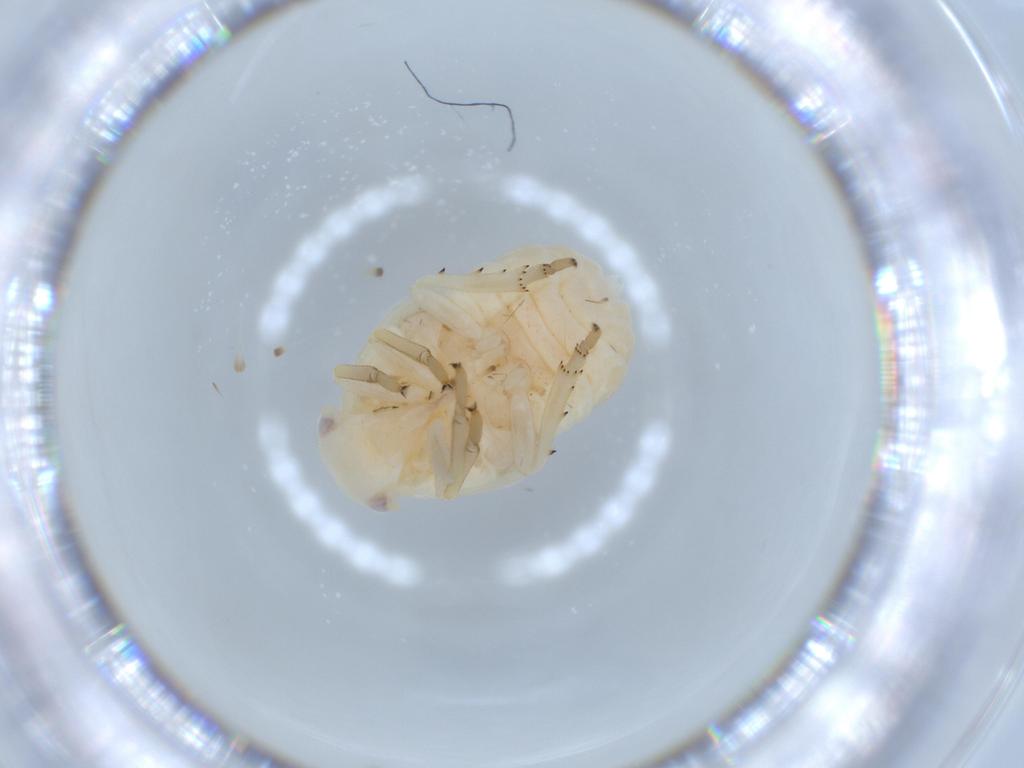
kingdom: Animalia
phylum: Arthropoda
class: Insecta
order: Hemiptera
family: Flatidae
